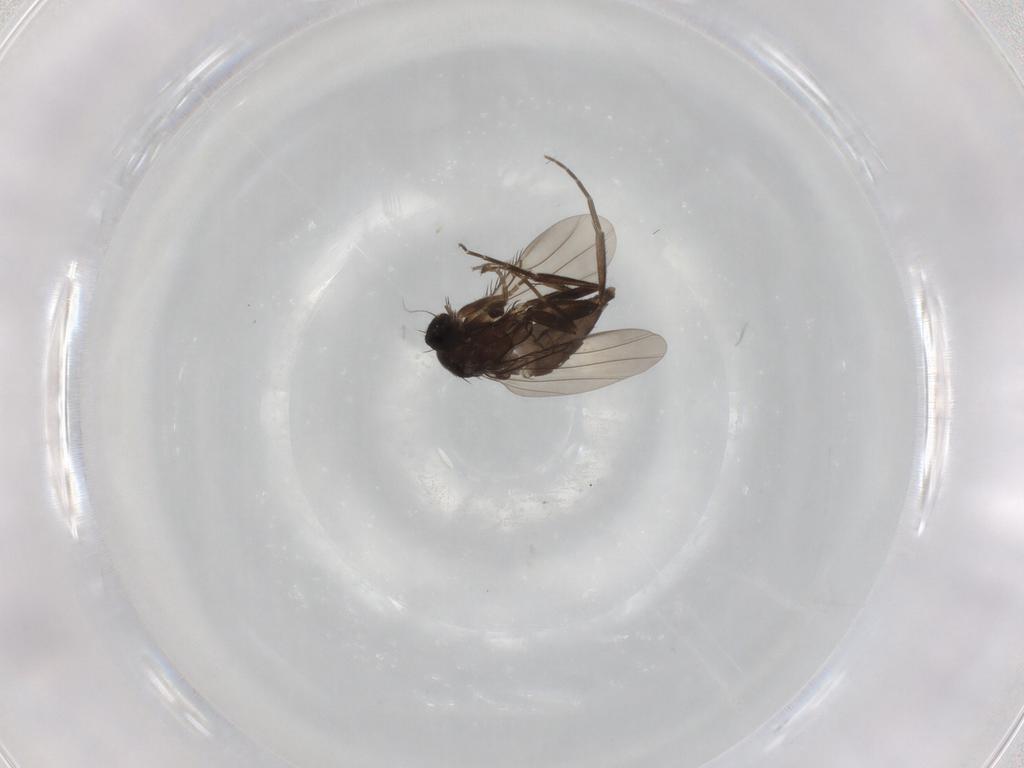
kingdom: Animalia
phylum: Arthropoda
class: Insecta
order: Diptera
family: Phoridae
